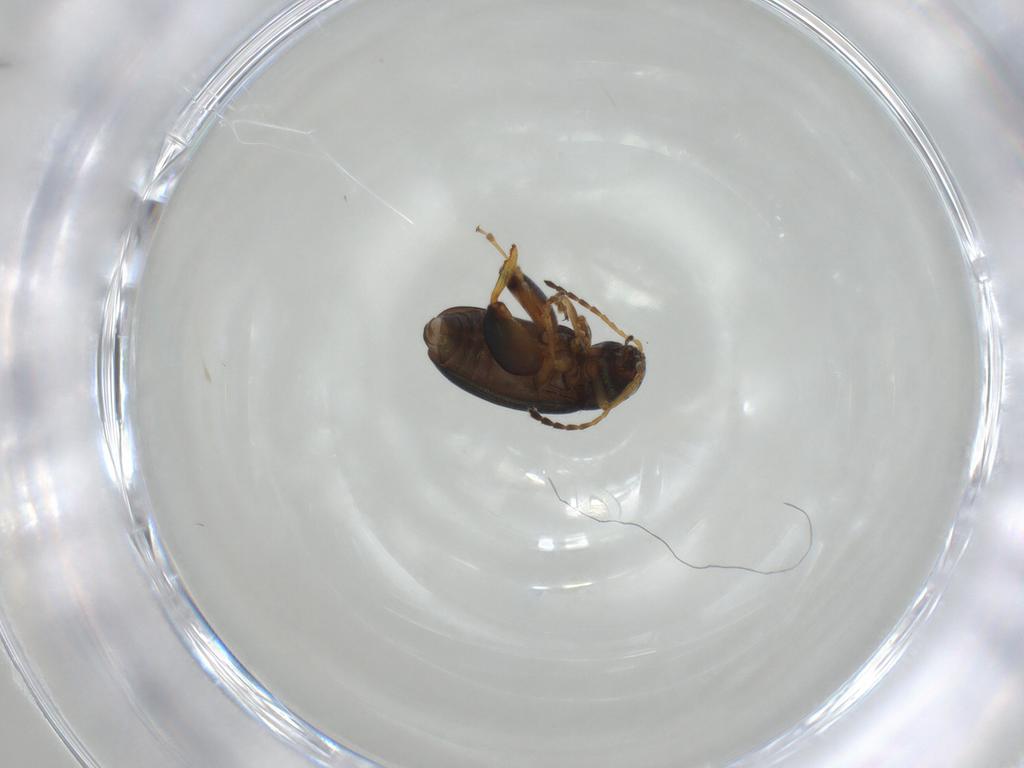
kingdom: Animalia
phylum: Arthropoda
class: Insecta
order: Coleoptera
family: Chrysomelidae
